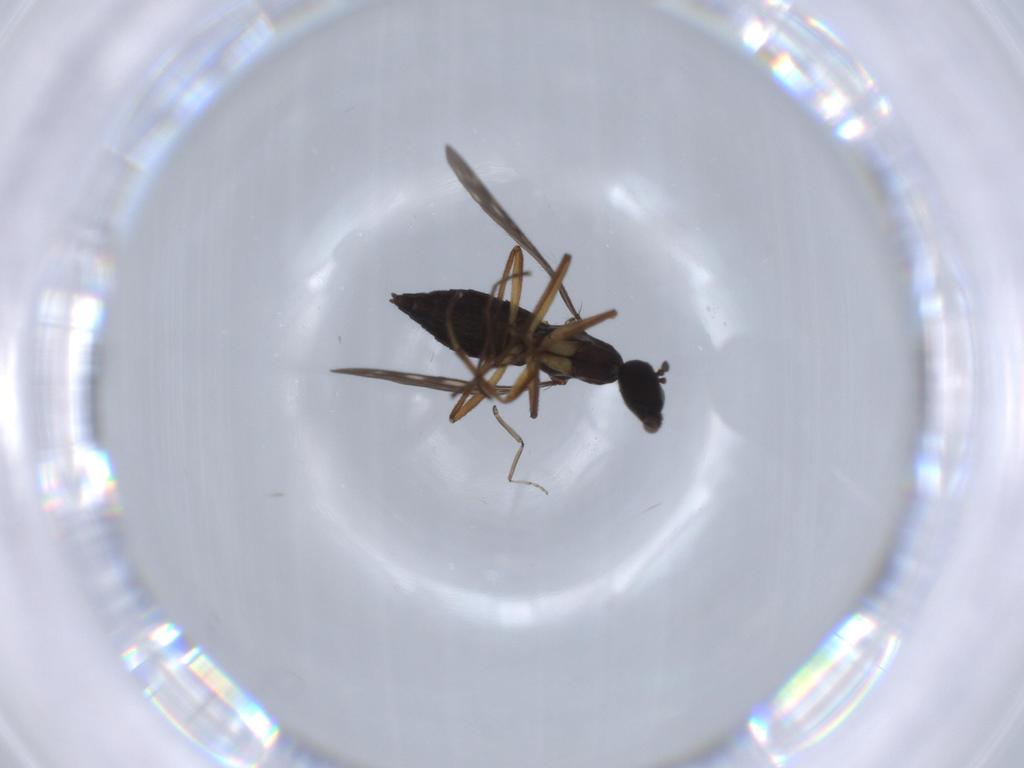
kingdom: Animalia
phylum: Arthropoda
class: Insecta
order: Diptera
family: Ceratopogonidae
